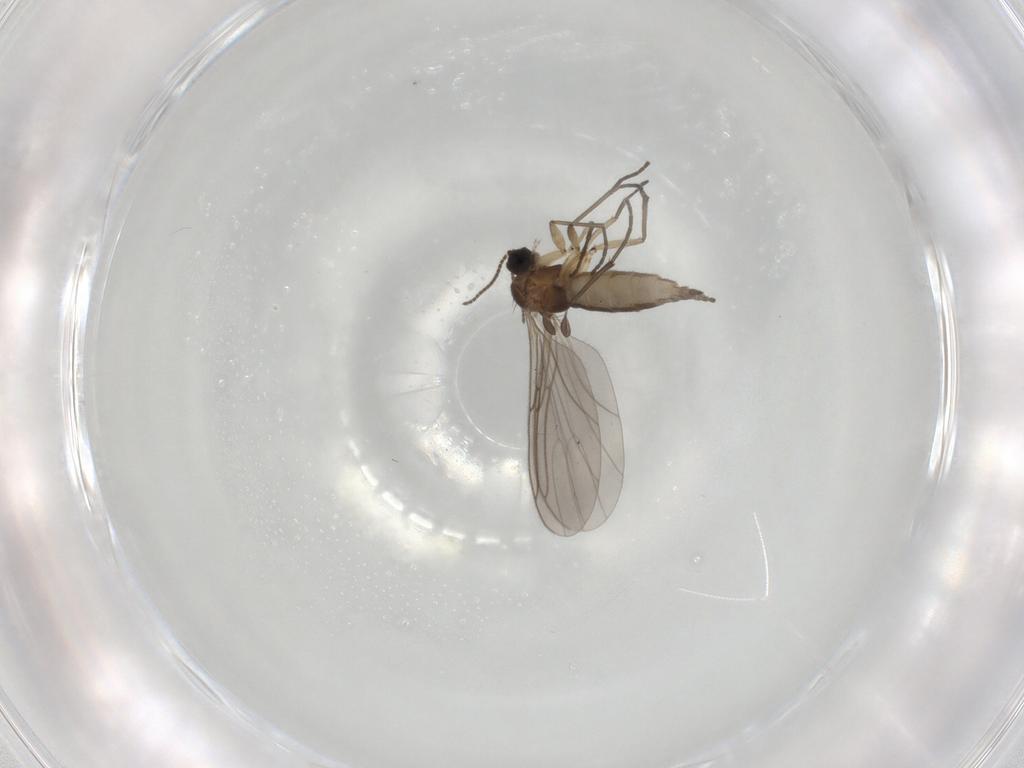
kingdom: Animalia
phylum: Arthropoda
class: Insecta
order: Diptera
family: Sciaridae
